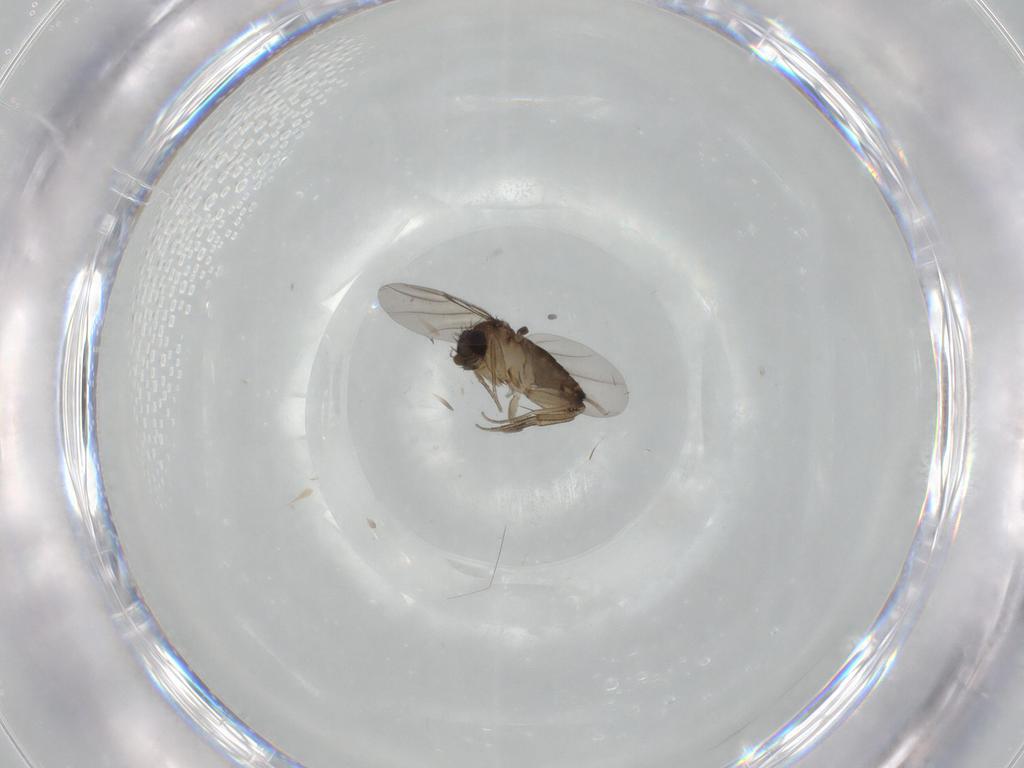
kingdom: Animalia
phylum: Arthropoda
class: Insecta
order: Diptera
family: Phoridae
